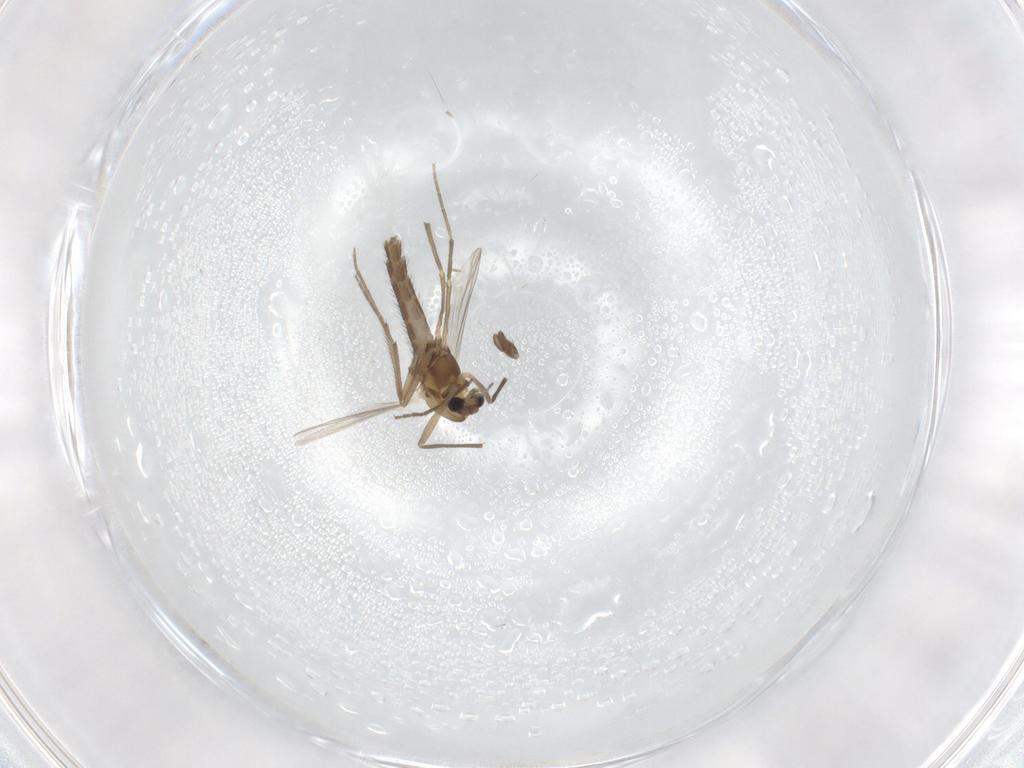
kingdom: Animalia
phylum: Arthropoda
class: Insecta
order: Diptera
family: Chironomidae
